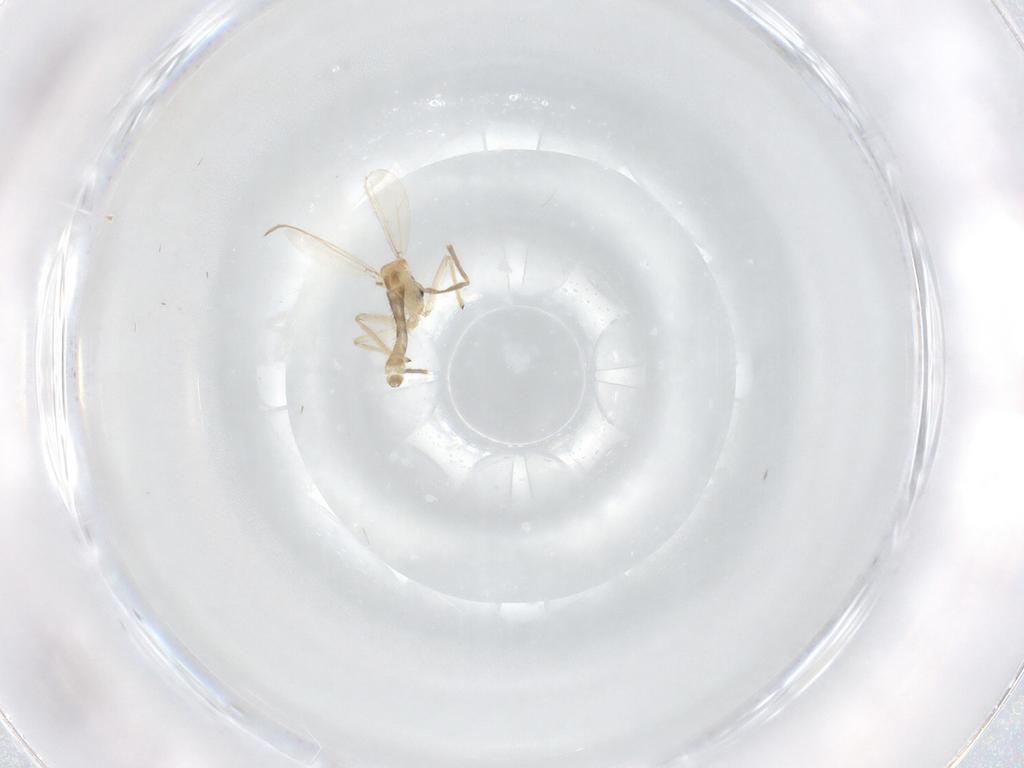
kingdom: Animalia
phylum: Arthropoda
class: Insecta
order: Diptera
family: Chironomidae
